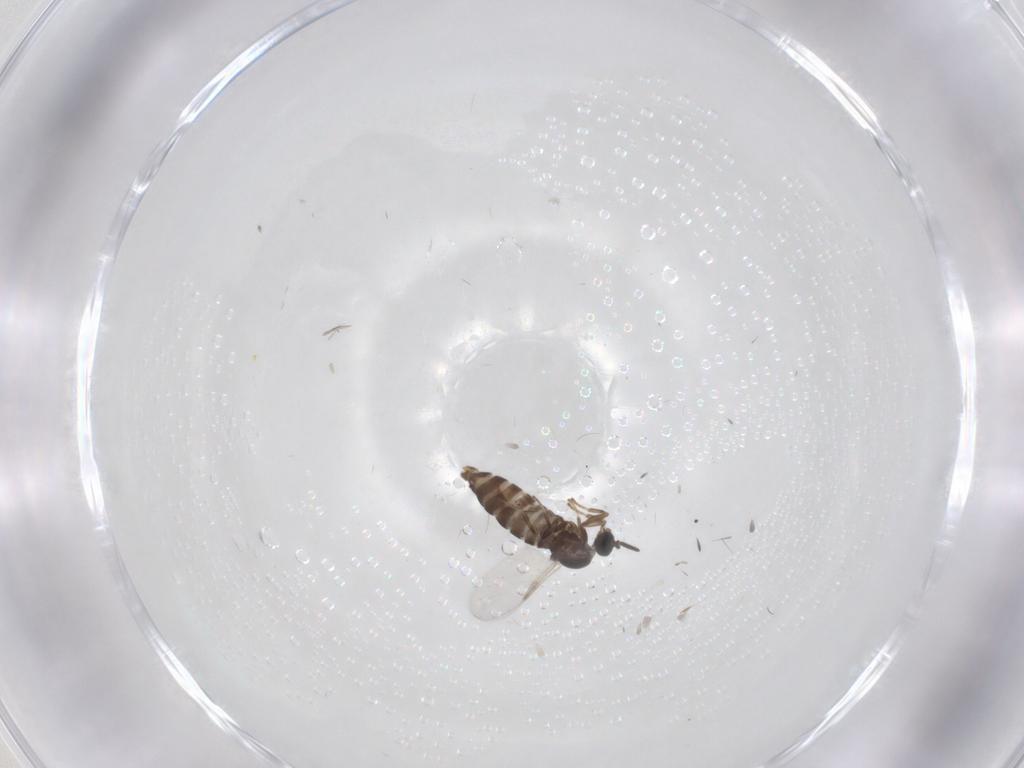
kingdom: Animalia
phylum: Arthropoda
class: Insecta
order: Diptera
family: Scatopsidae
